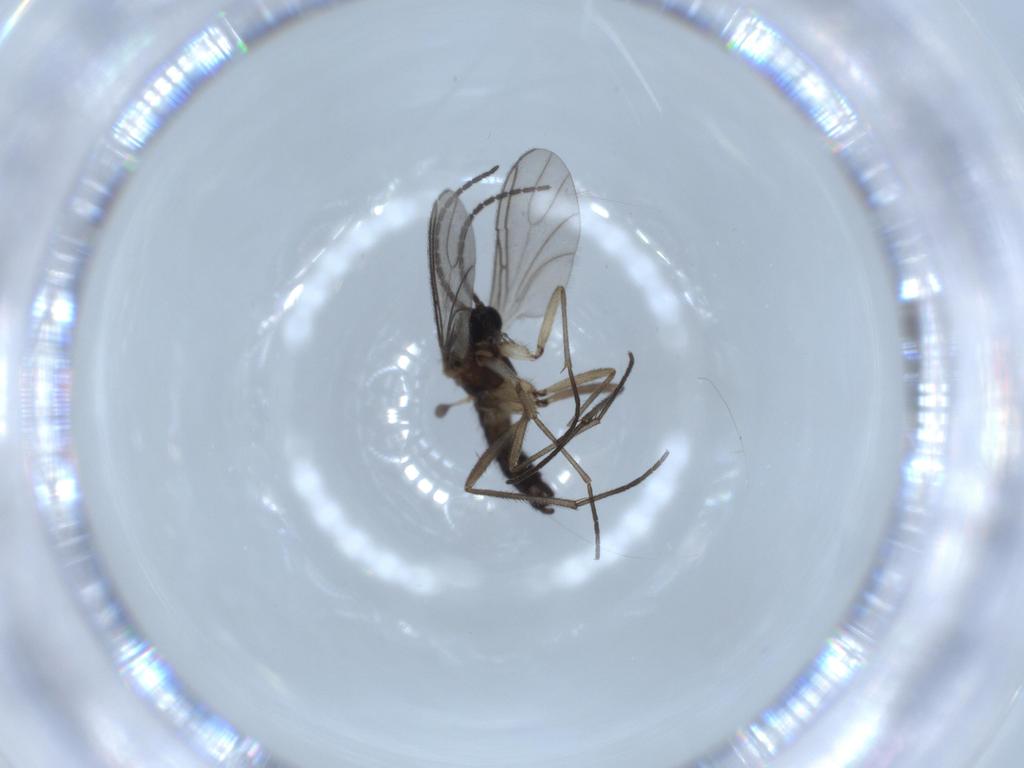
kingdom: Animalia
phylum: Arthropoda
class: Insecta
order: Diptera
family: Sciaridae
